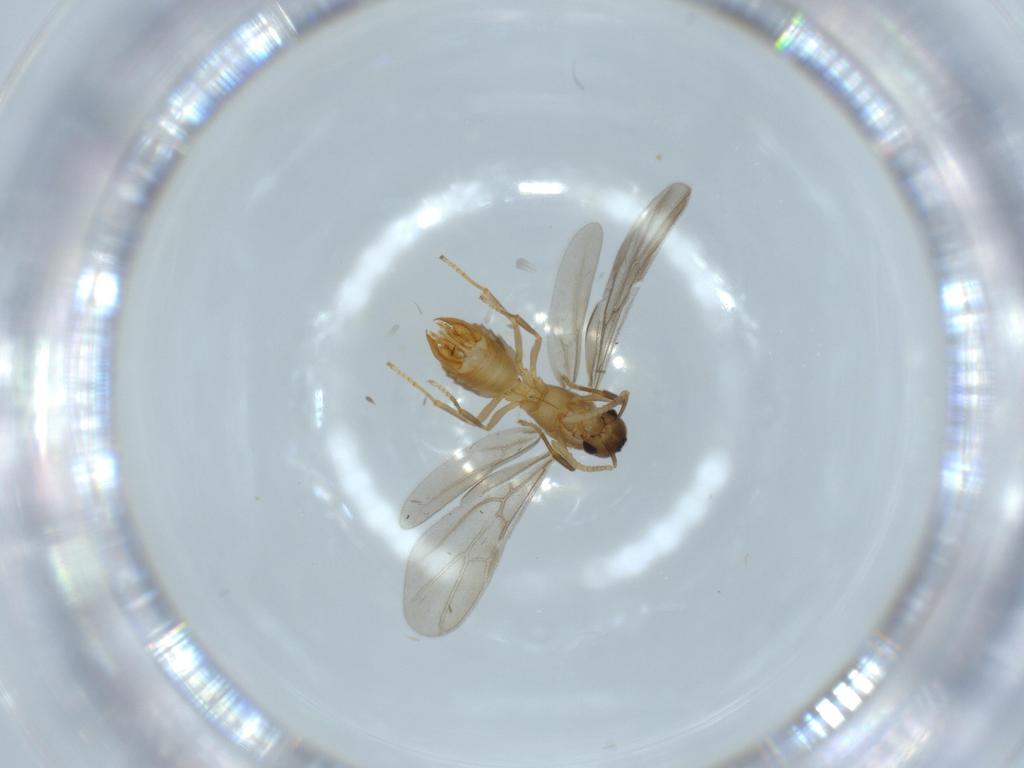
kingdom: Animalia
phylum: Arthropoda
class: Insecta
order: Hymenoptera
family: Formicidae
